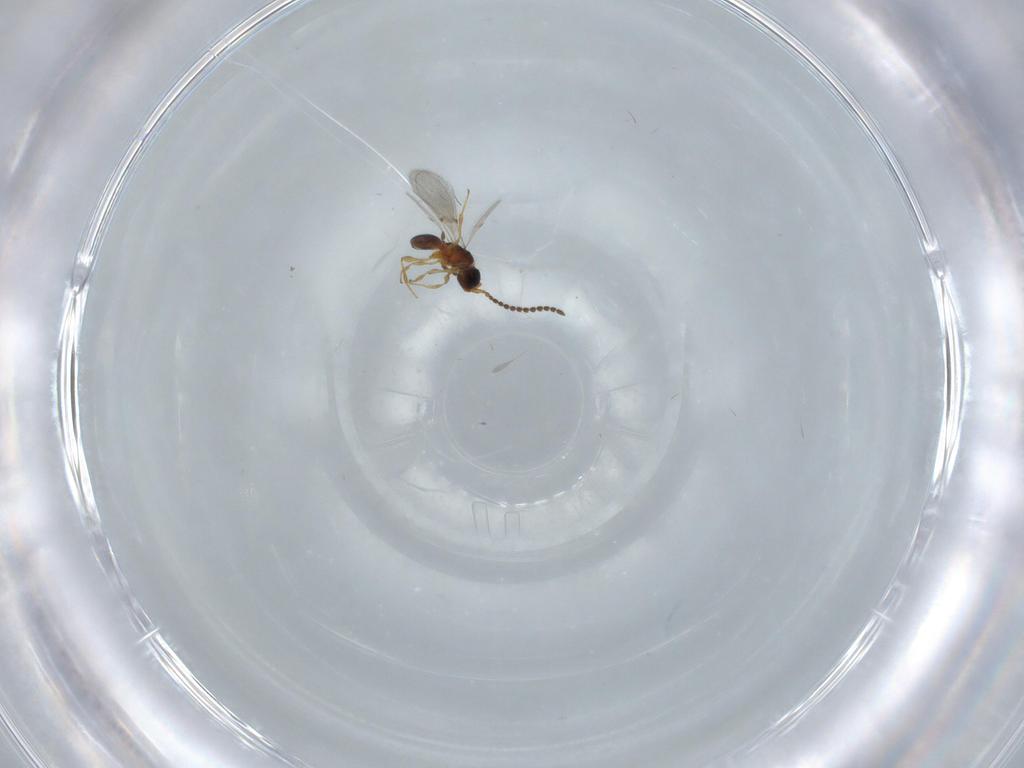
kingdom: Animalia
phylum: Arthropoda
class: Insecta
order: Hymenoptera
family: Diapriidae
